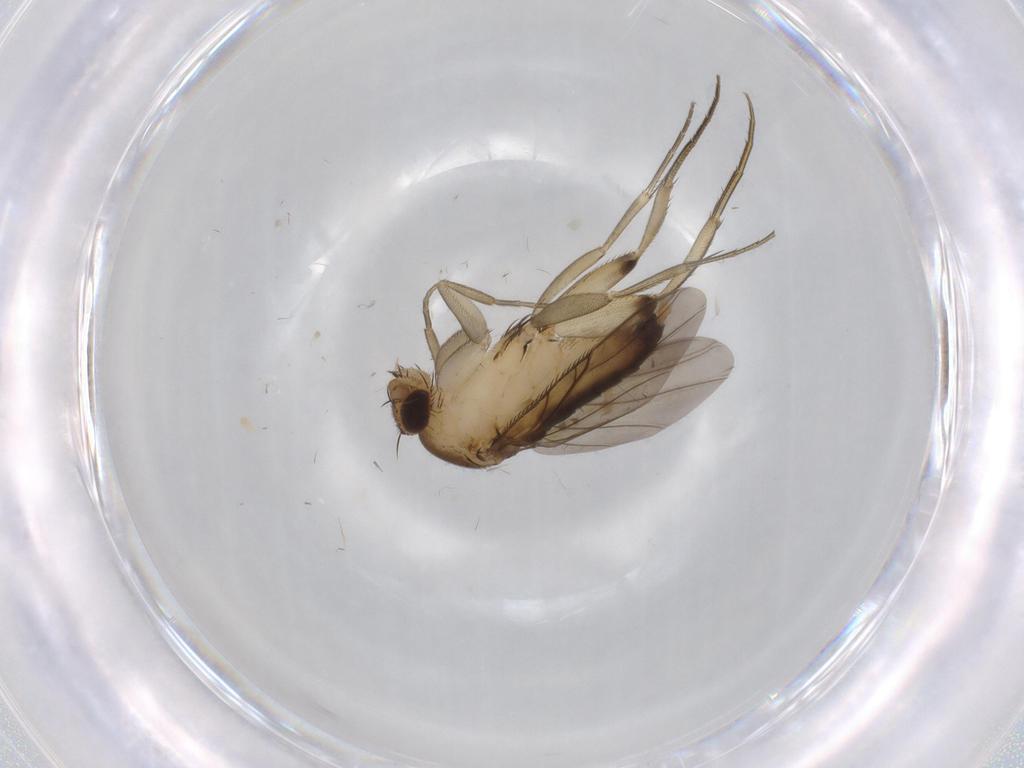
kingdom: Animalia
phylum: Arthropoda
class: Insecta
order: Diptera
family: Phoridae
